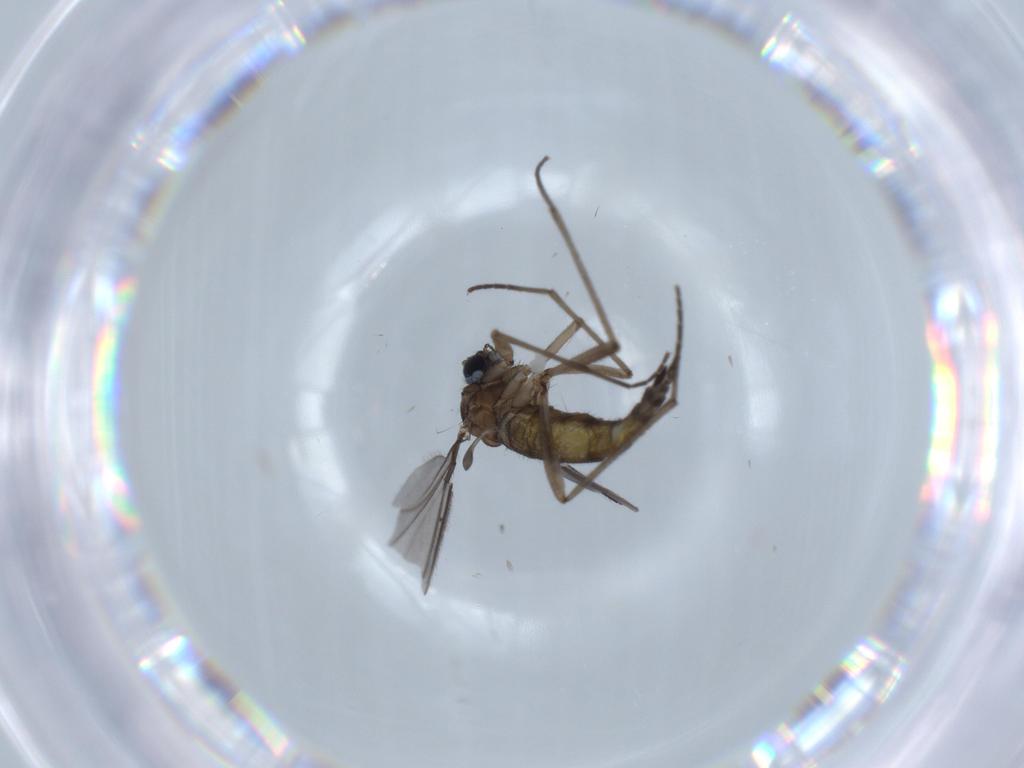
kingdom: Animalia
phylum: Arthropoda
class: Insecta
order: Diptera
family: Sciaridae
